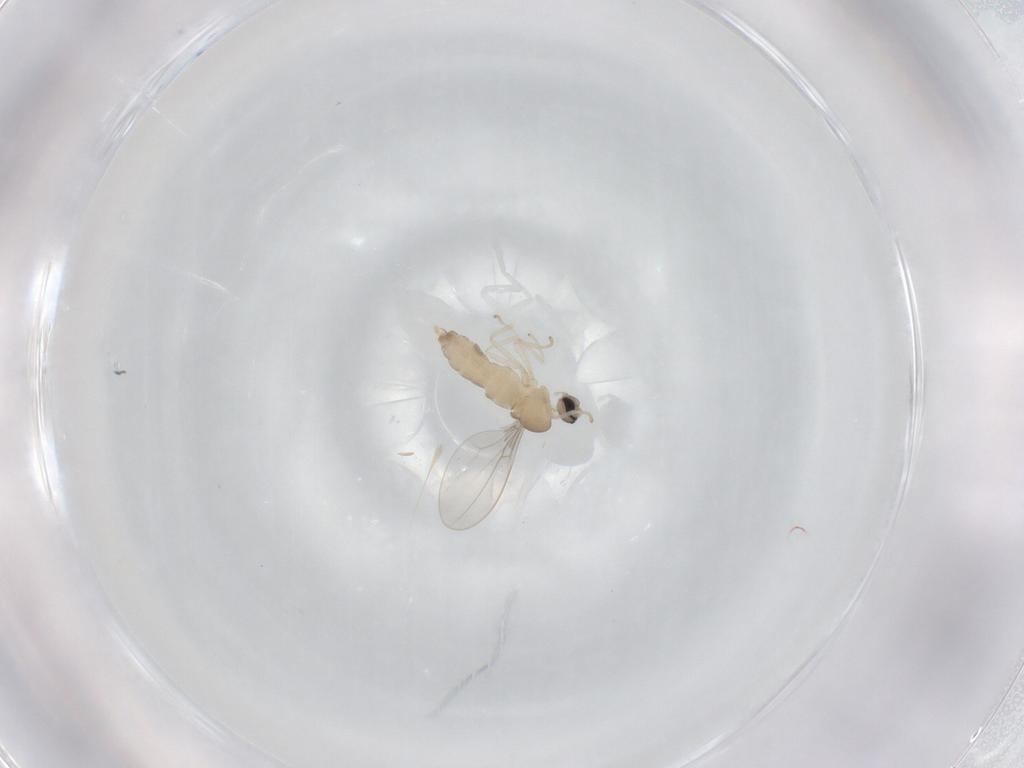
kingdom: Animalia
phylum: Arthropoda
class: Insecta
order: Diptera
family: Cecidomyiidae
